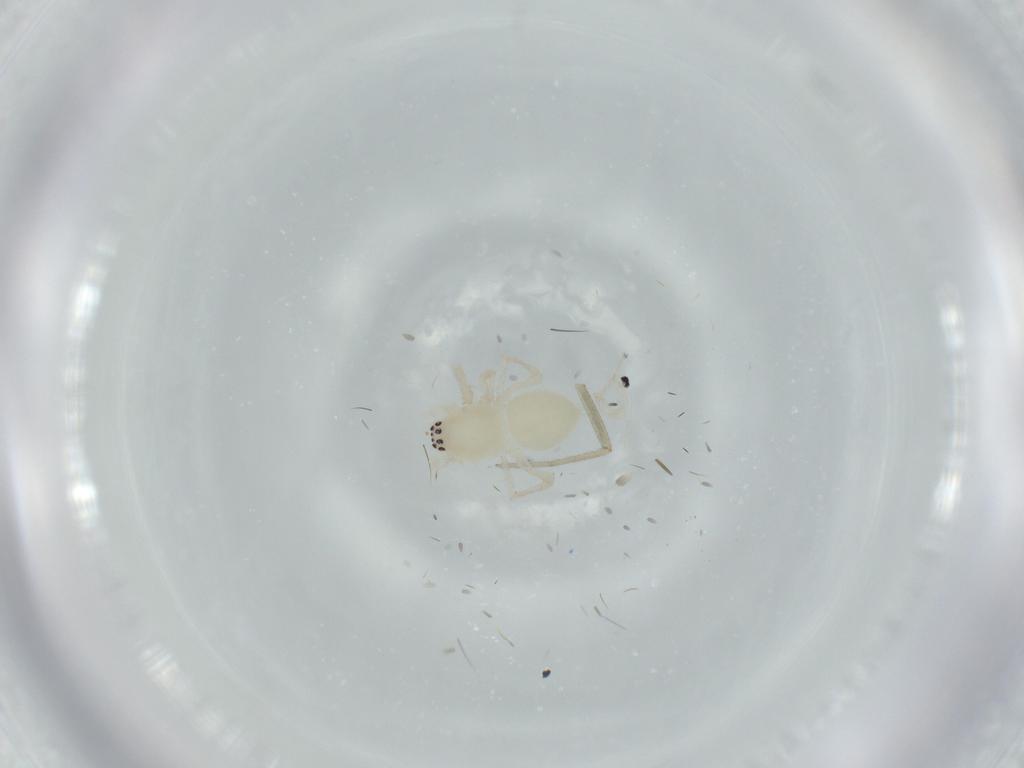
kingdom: Animalia
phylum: Arthropoda
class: Arachnida
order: Araneae
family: Linyphiidae
